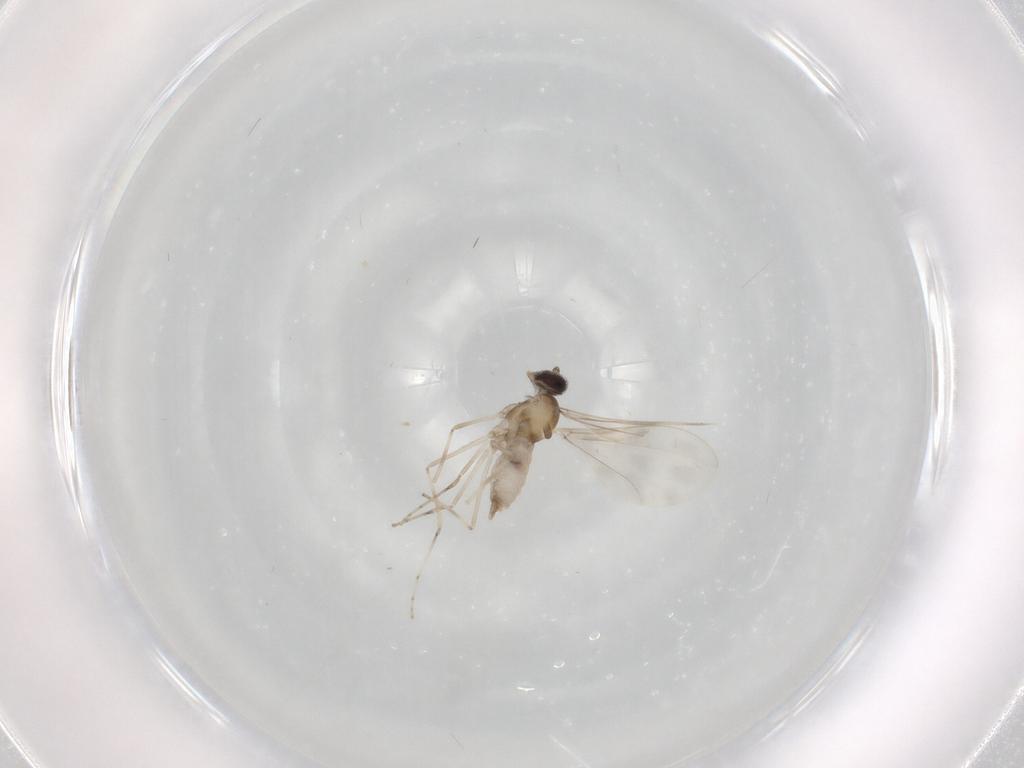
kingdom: Animalia
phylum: Arthropoda
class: Insecta
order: Diptera
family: Cecidomyiidae
